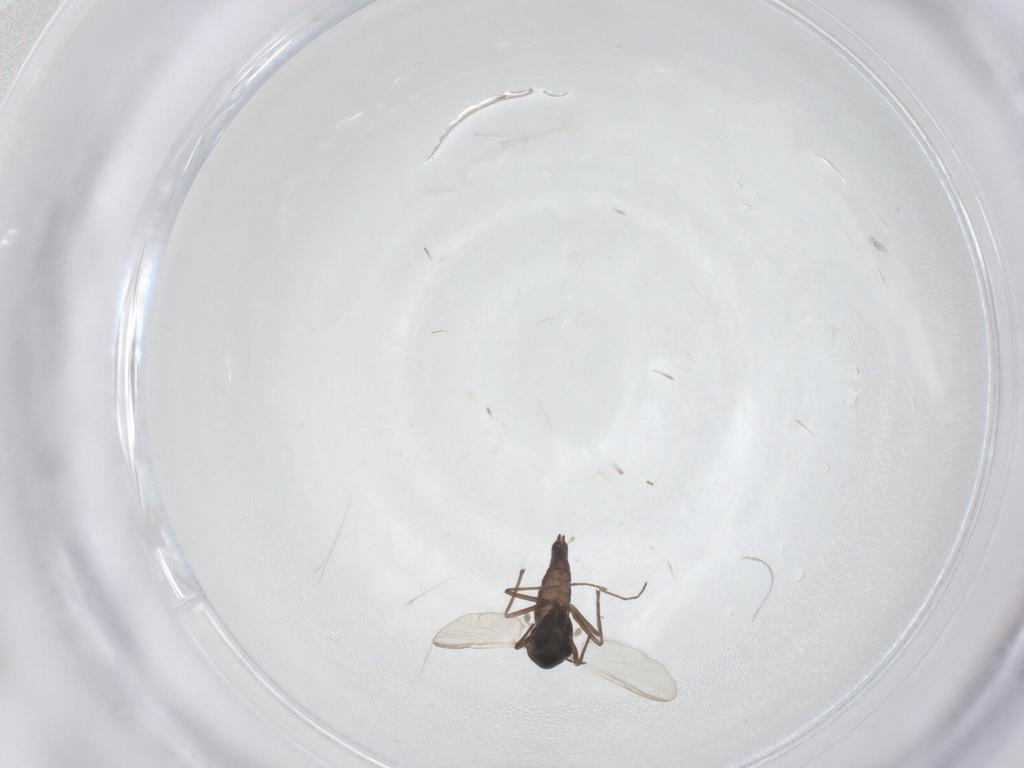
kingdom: Animalia
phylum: Arthropoda
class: Insecta
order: Diptera
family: Chironomidae
